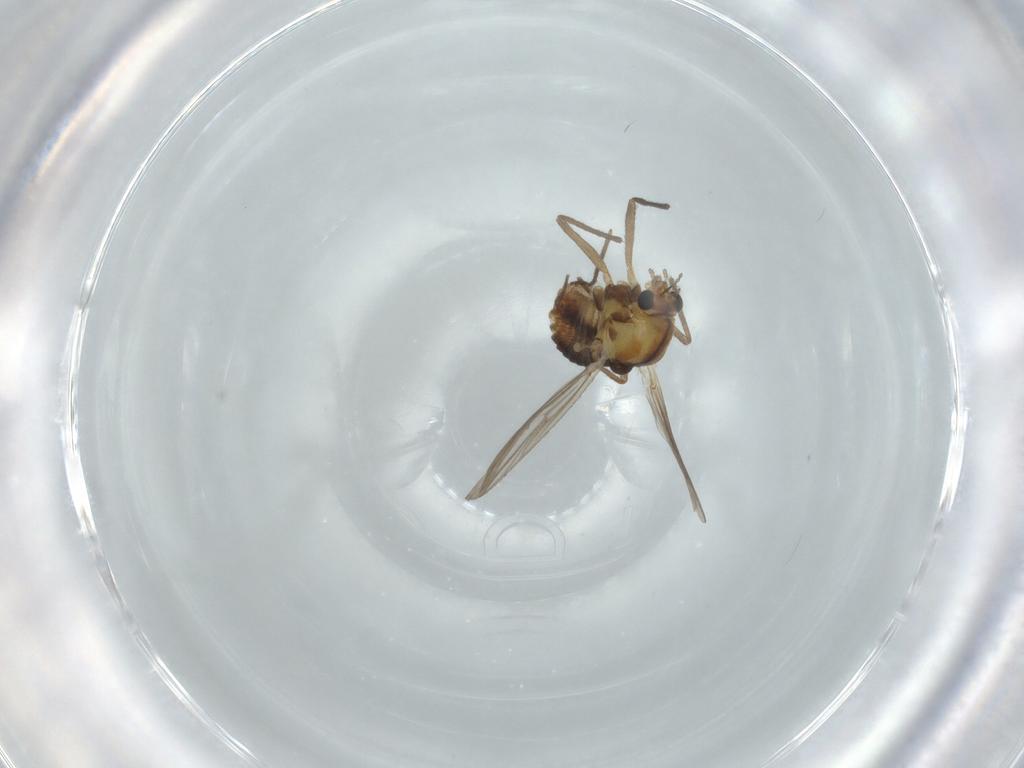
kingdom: Animalia
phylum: Arthropoda
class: Insecta
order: Diptera
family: Chironomidae
